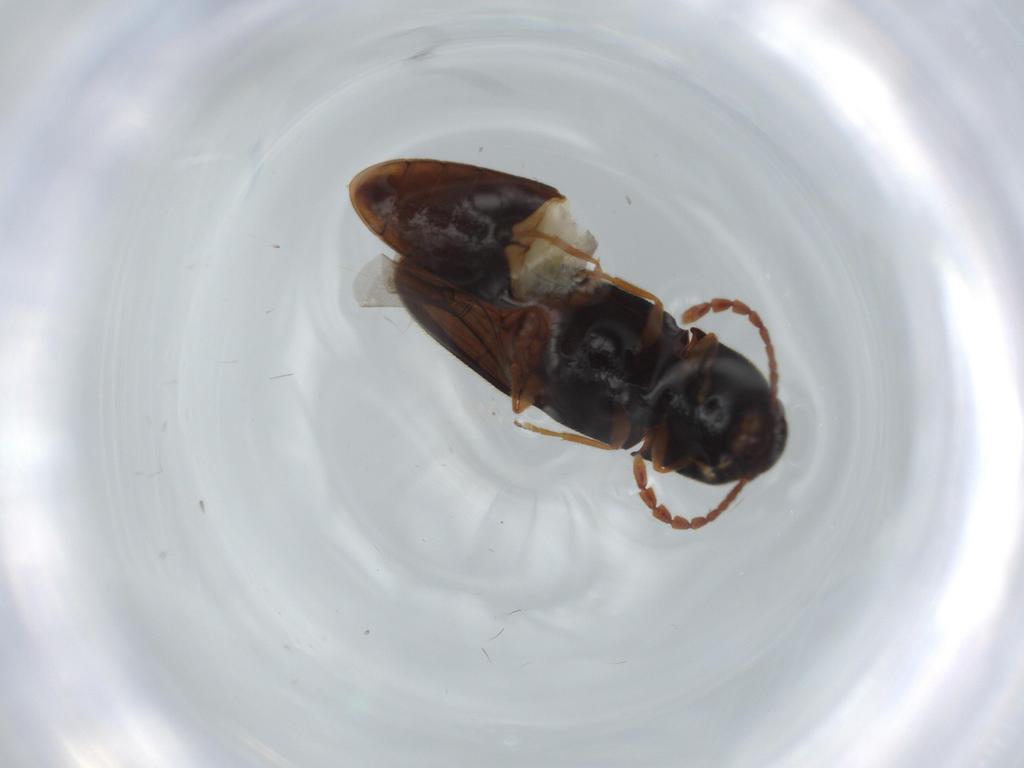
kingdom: Animalia
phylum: Arthropoda
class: Insecta
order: Coleoptera
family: Elateridae
